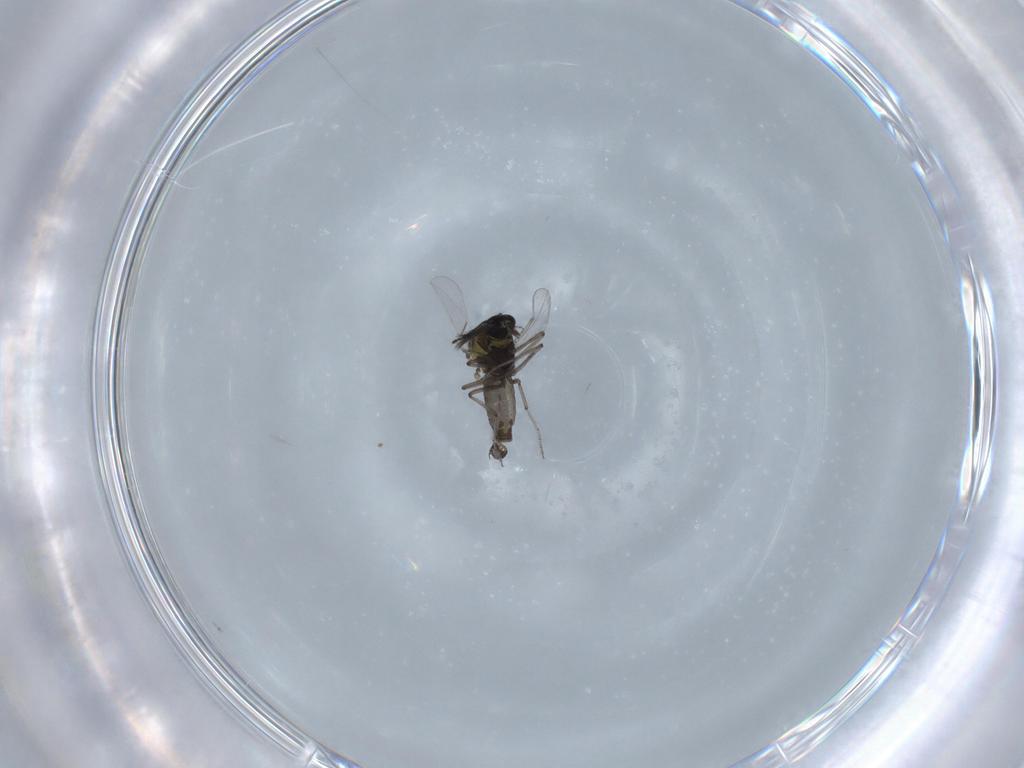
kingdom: Animalia
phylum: Arthropoda
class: Insecta
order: Diptera
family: Ceratopogonidae
